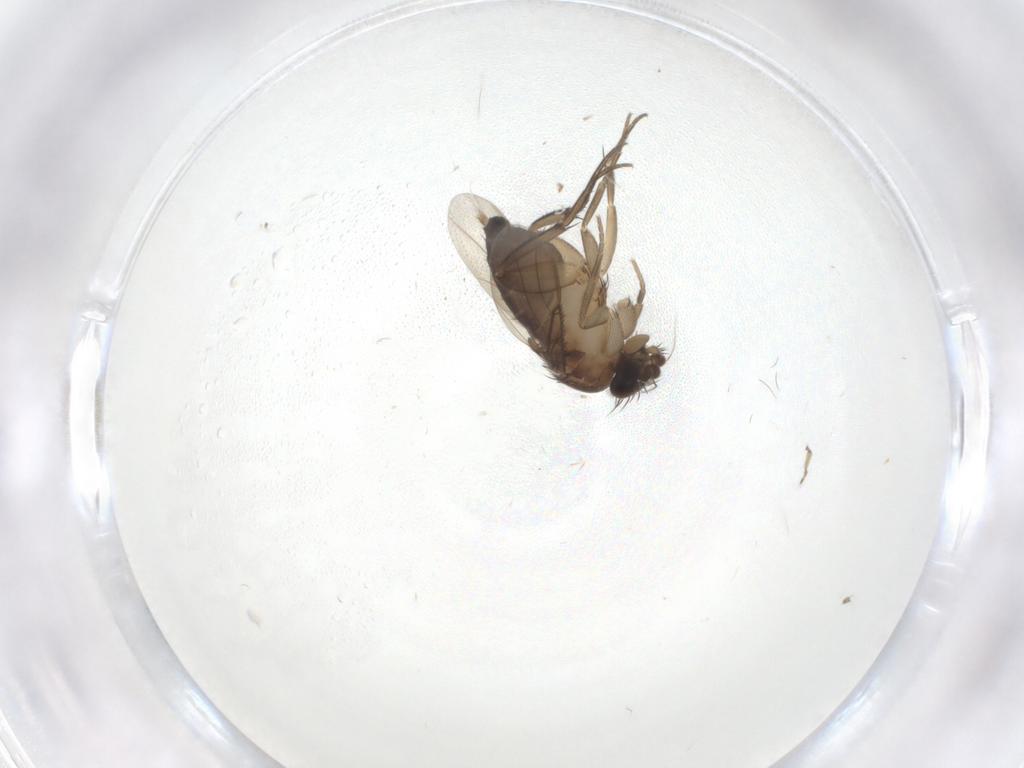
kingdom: Animalia
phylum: Arthropoda
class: Insecta
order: Diptera
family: Phoridae
